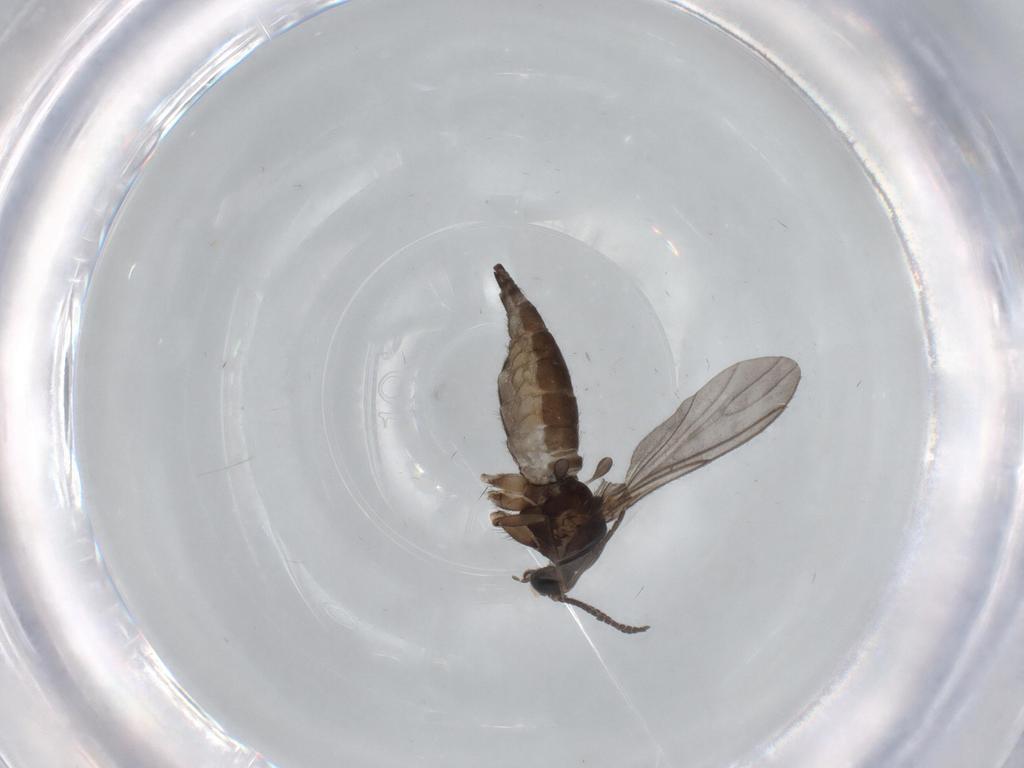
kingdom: Animalia
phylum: Arthropoda
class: Insecta
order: Diptera
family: Sciaridae
